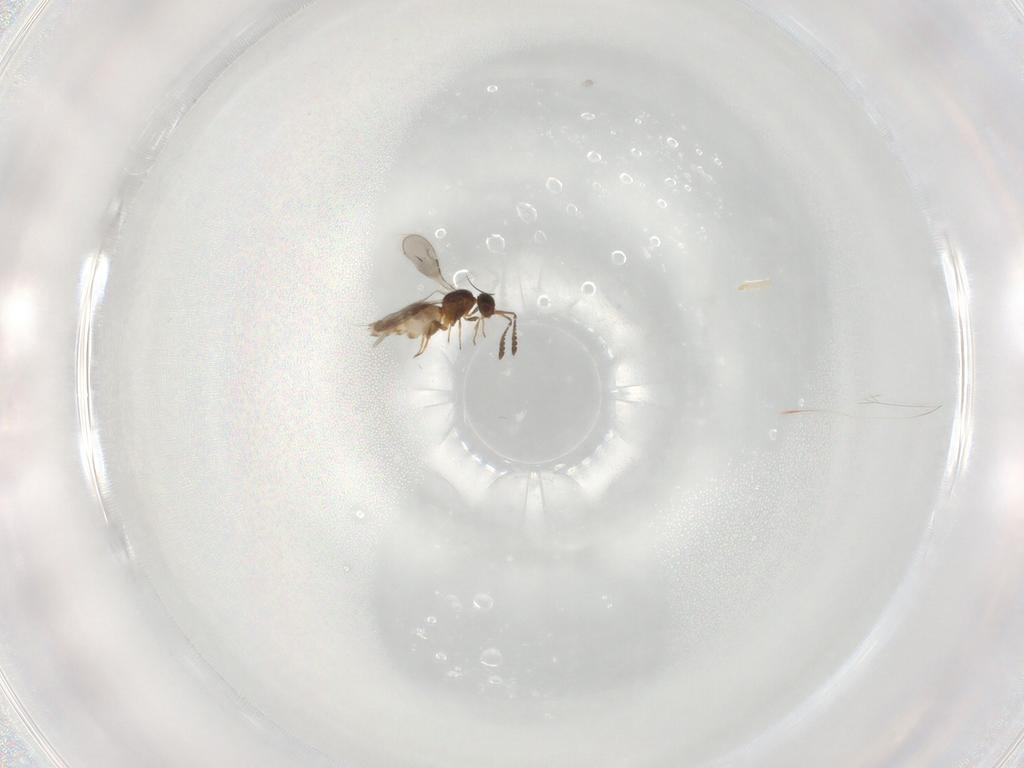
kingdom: Animalia
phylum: Arthropoda
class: Insecta
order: Hymenoptera
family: Ceraphronidae
